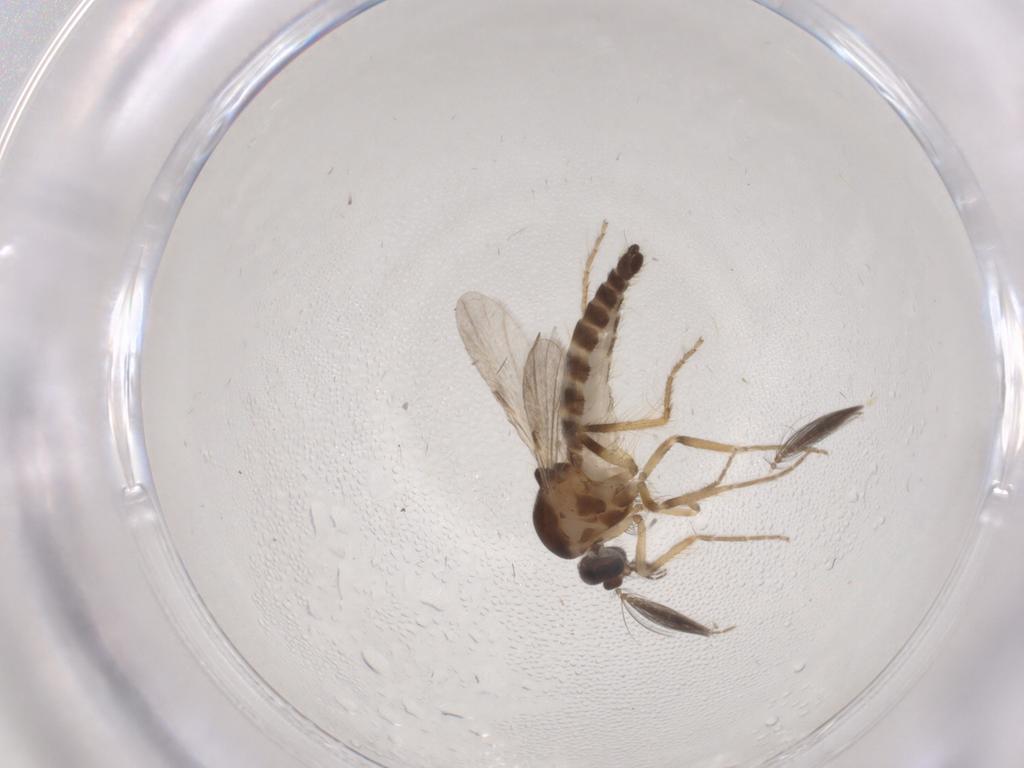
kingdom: Animalia
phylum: Arthropoda
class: Insecta
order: Diptera
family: Ceratopogonidae
